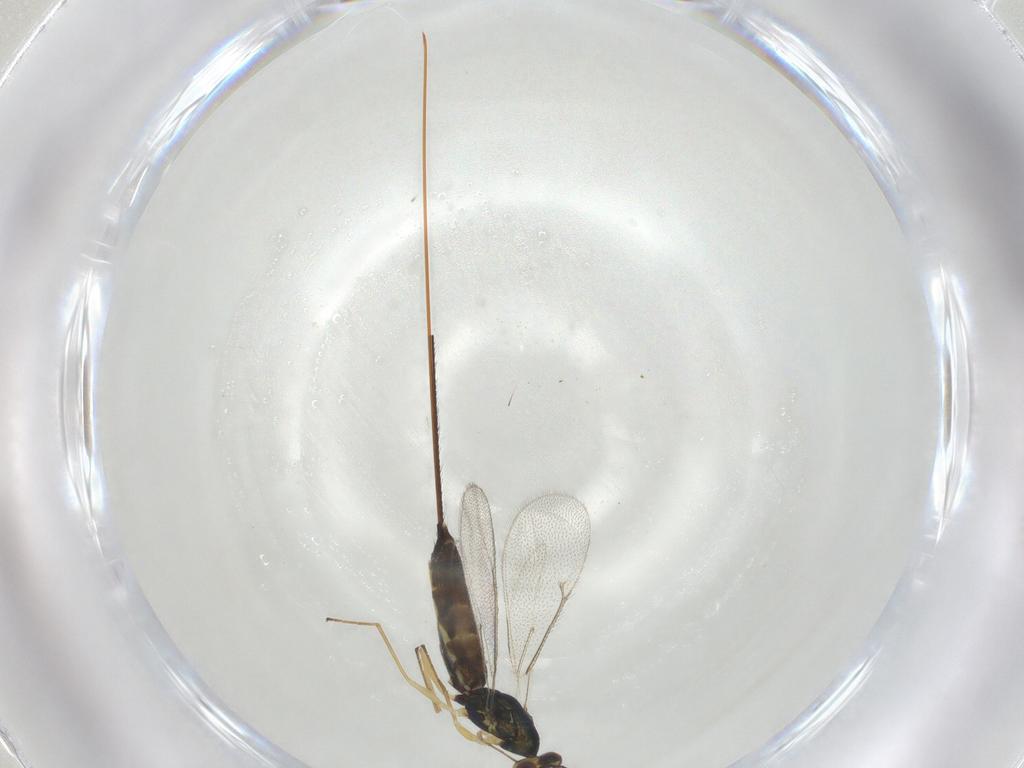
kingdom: Animalia
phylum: Arthropoda
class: Insecta
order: Hymenoptera
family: Eulophidae
